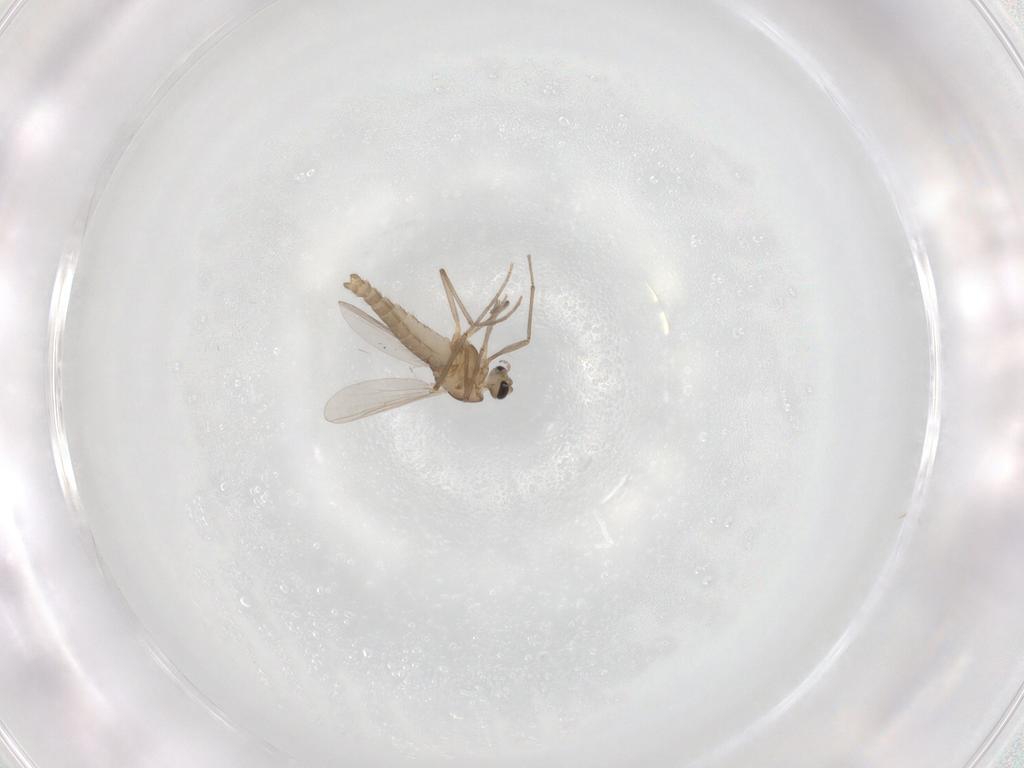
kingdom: Animalia
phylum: Arthropoda
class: Insecta
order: Diptera
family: Chironomidae
